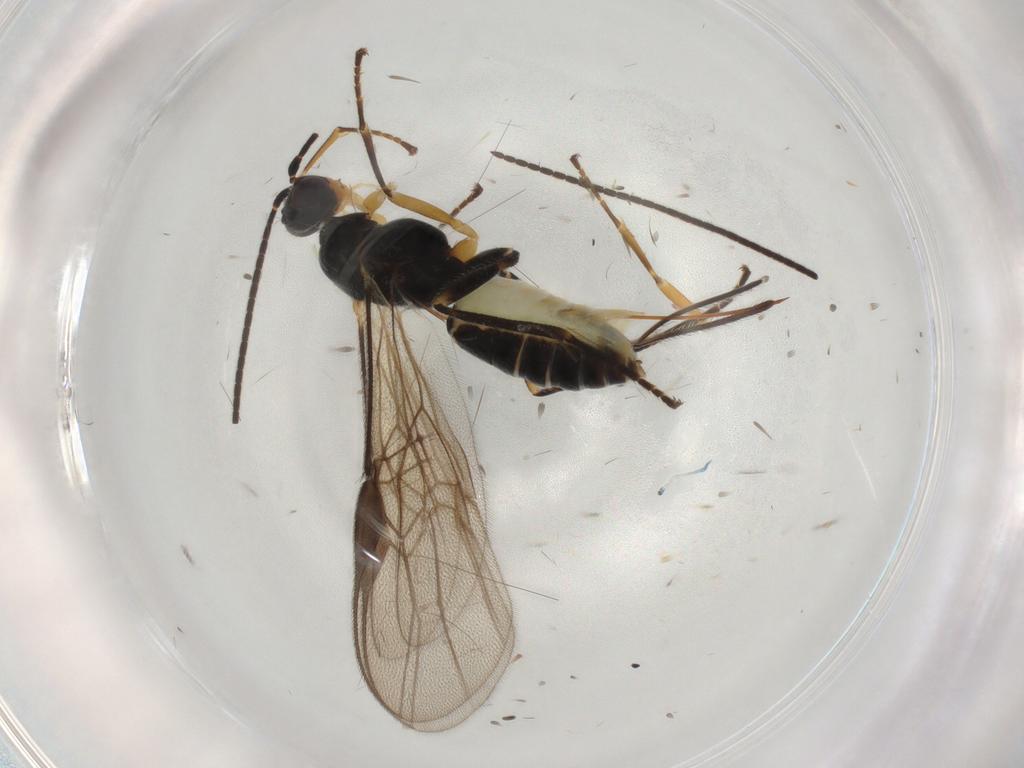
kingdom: Animalia
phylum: Arthropoda
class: Insecta
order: Hymenoptera
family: Braconidae
